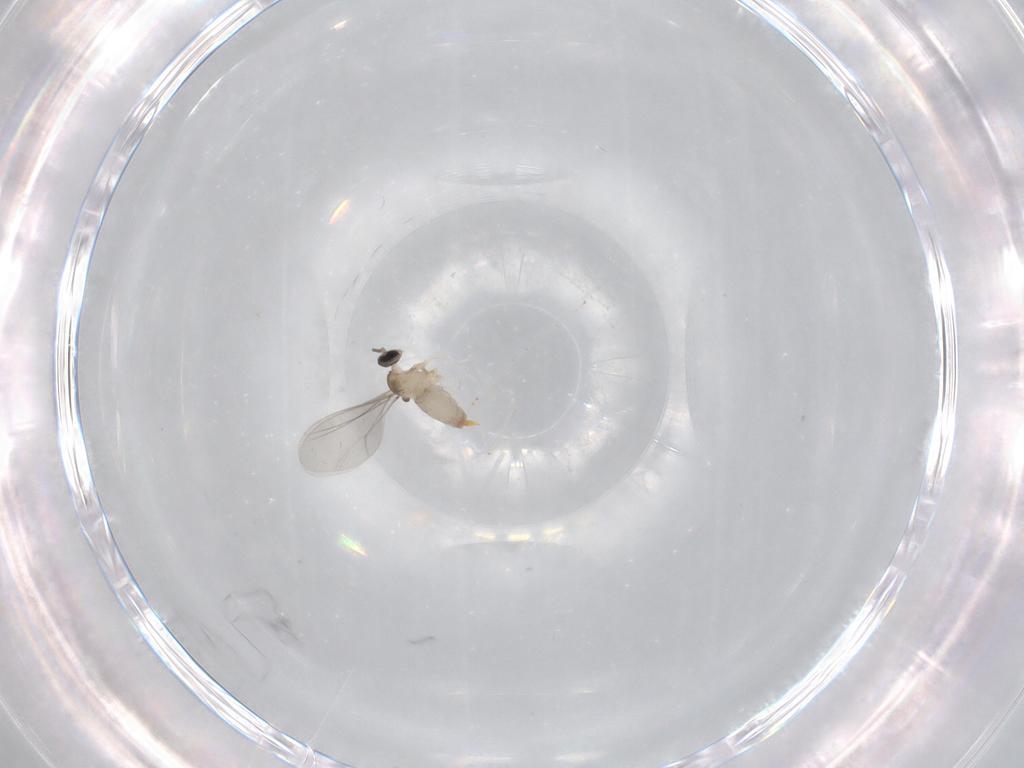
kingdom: Animalia
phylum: Arthropoda
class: Insecta
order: Diptera
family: Cecidomyiidae
